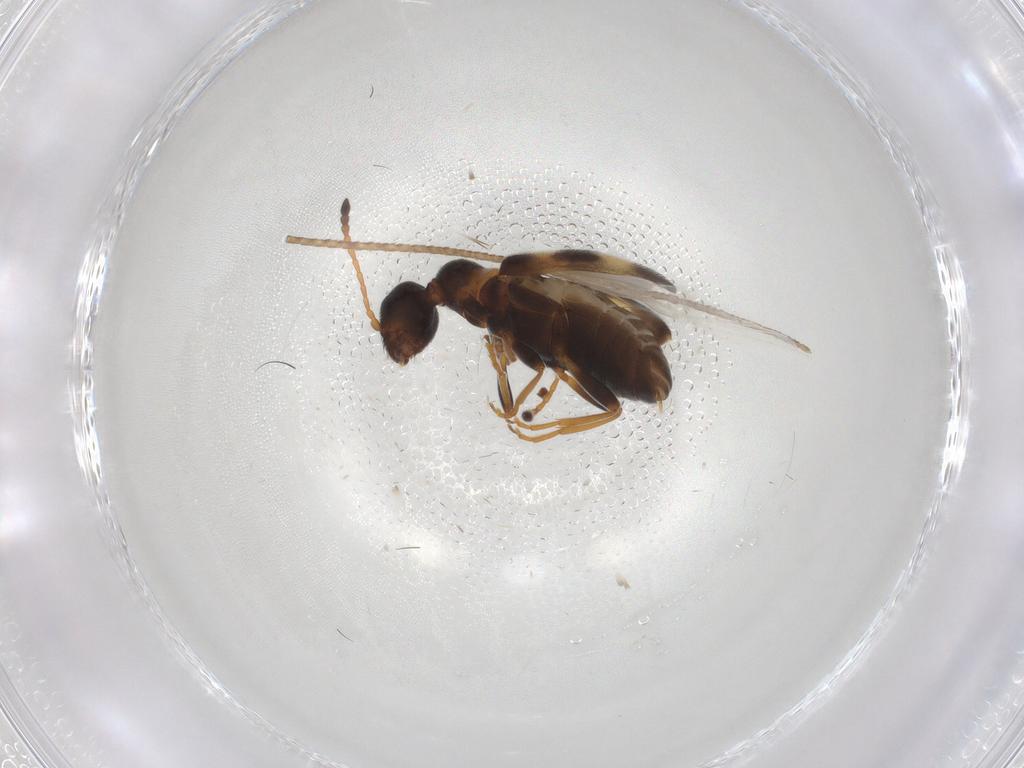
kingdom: Animalia
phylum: Arthropoda
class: Insecta
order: Coleoptera
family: Anthicidae
